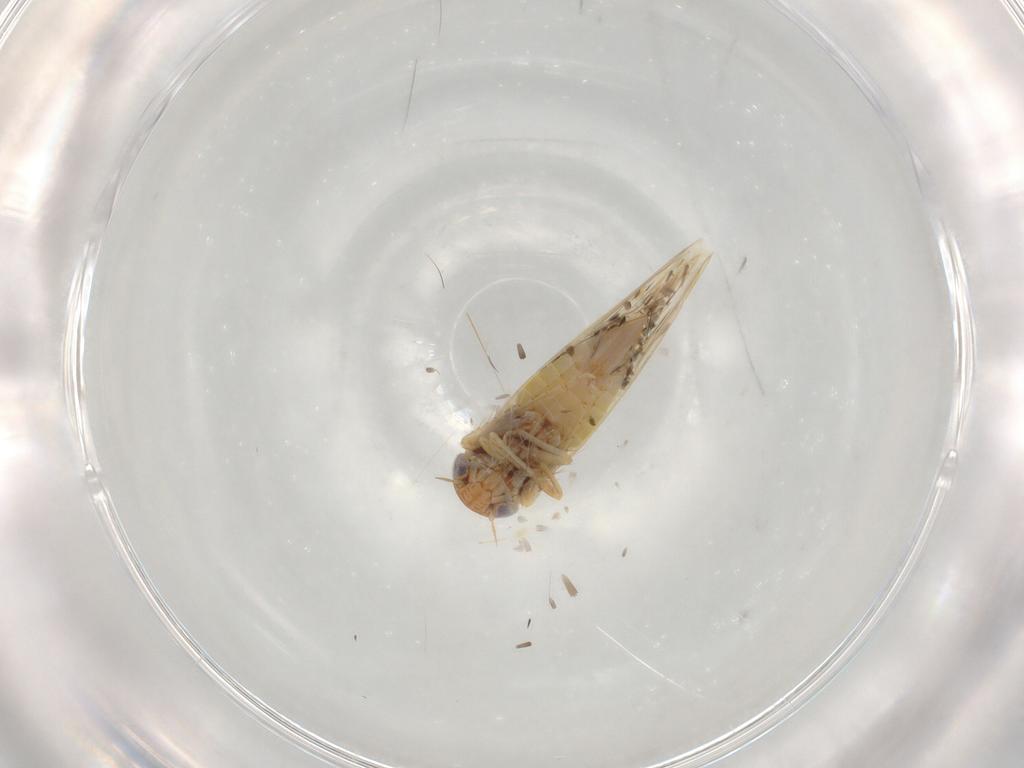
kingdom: Animalia
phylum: Arthropoda
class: Insecta
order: Hemiptera
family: Cicadellidae
